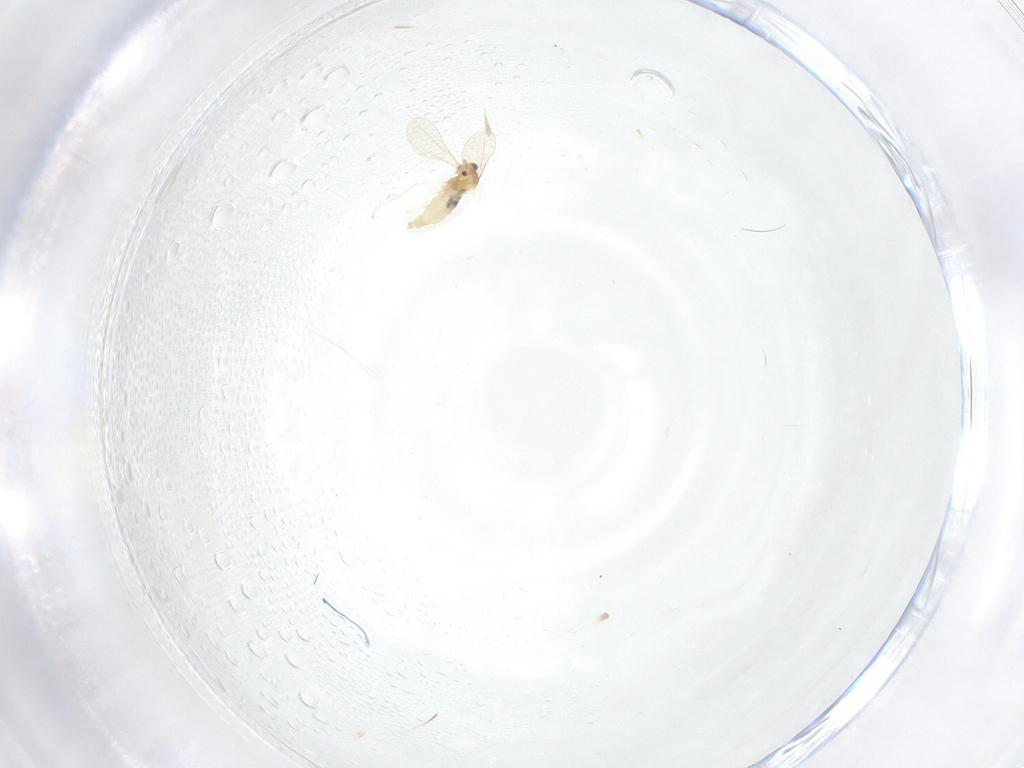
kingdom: Animalia
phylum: Arthropoda
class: Insecta
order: Diptera
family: Cecidomyiidae
